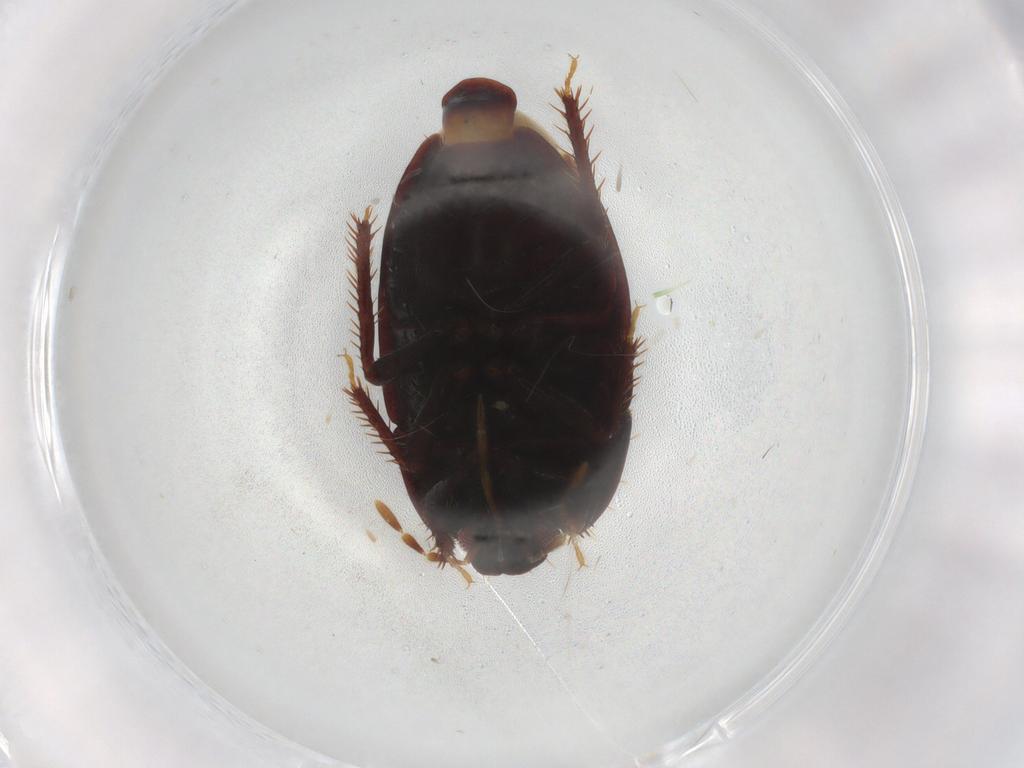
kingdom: Animalia
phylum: Arthropoda
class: Insecta
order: Hemiptera
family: Cydnidae
